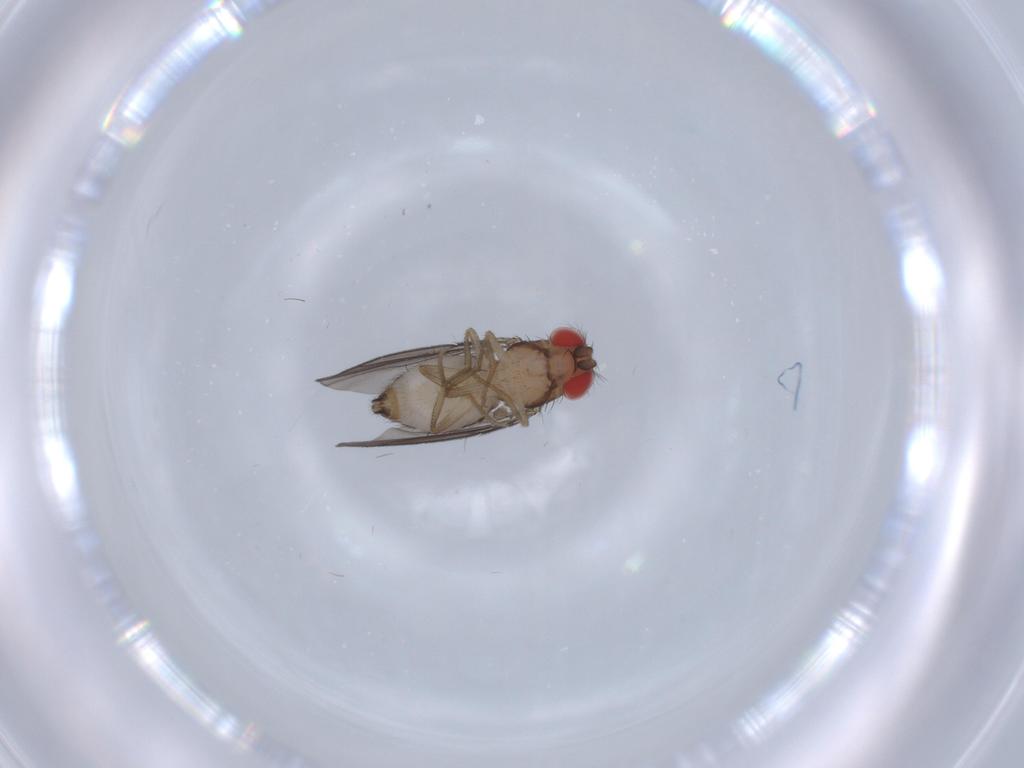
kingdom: Animalia
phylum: Arthropoda
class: Insecta
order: Diptera
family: Drosophilidae
